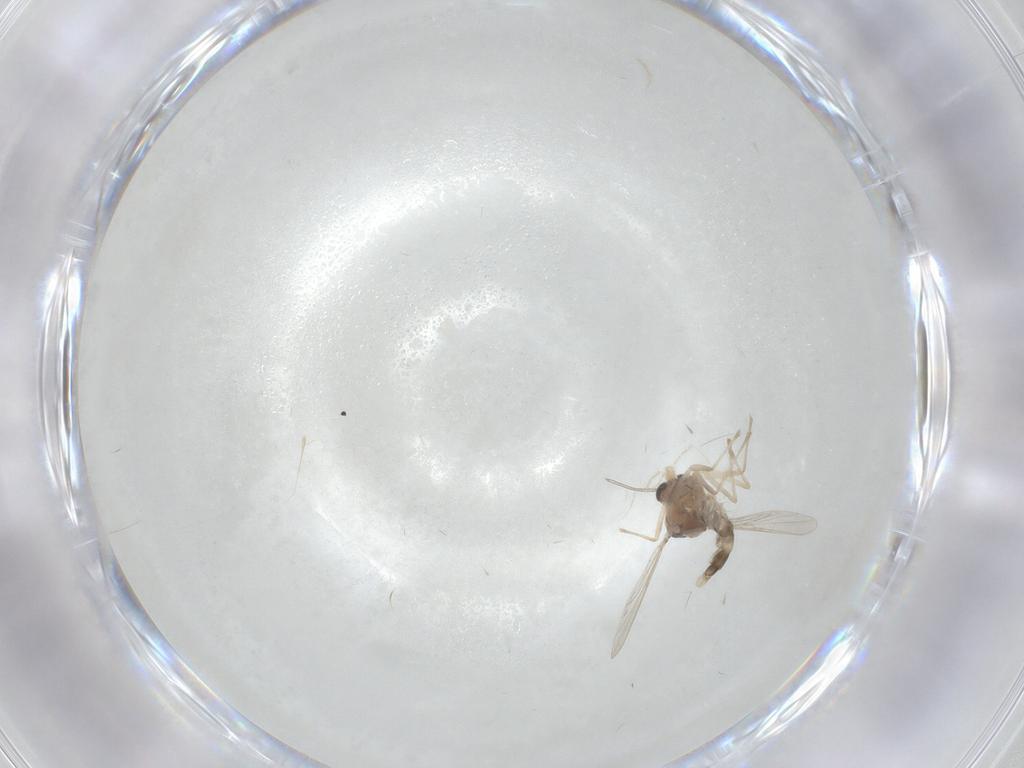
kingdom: Animalia
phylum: Arthropoda
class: Insecta
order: Diptera
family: Chironomidae
